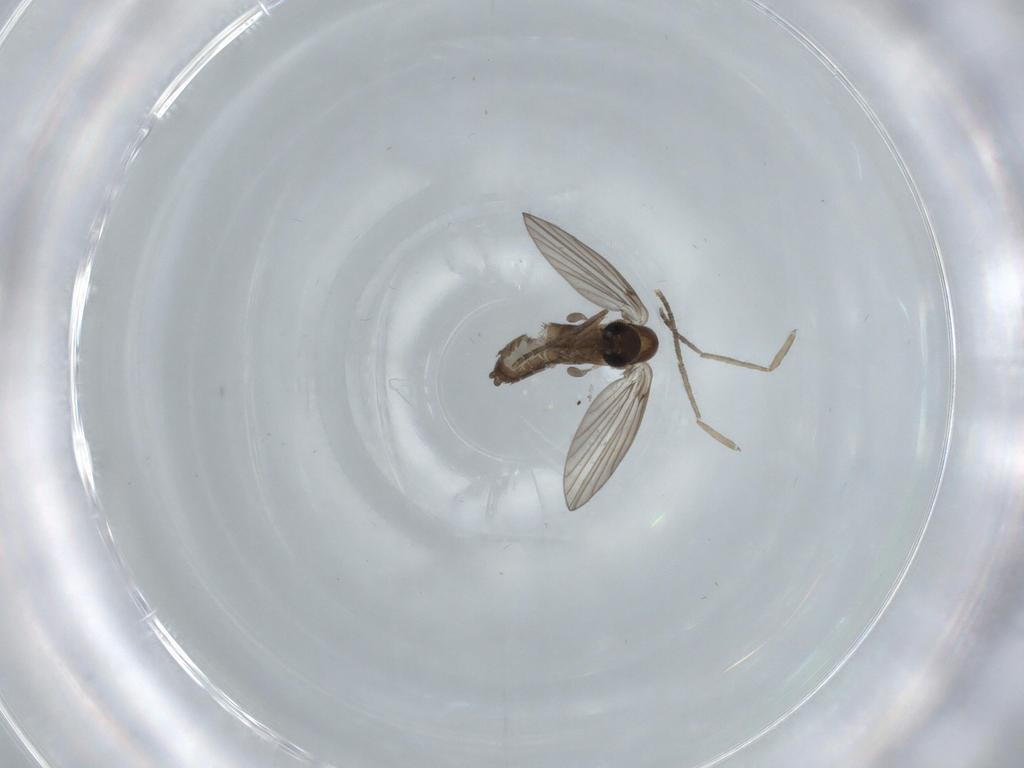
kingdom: Animalia
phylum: Arthropoda
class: Insecta
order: Diptera
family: Psychodidae
